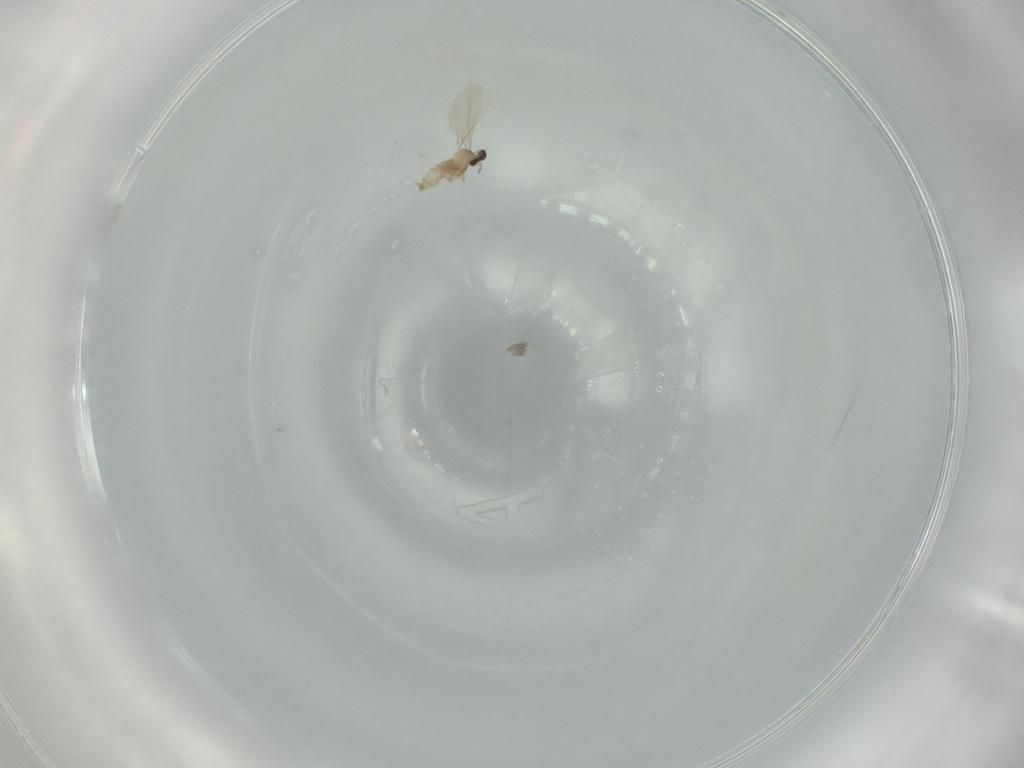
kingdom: Animalia
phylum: Arthropoda
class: Insecta
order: Diptera
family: Cecidomyiidae
